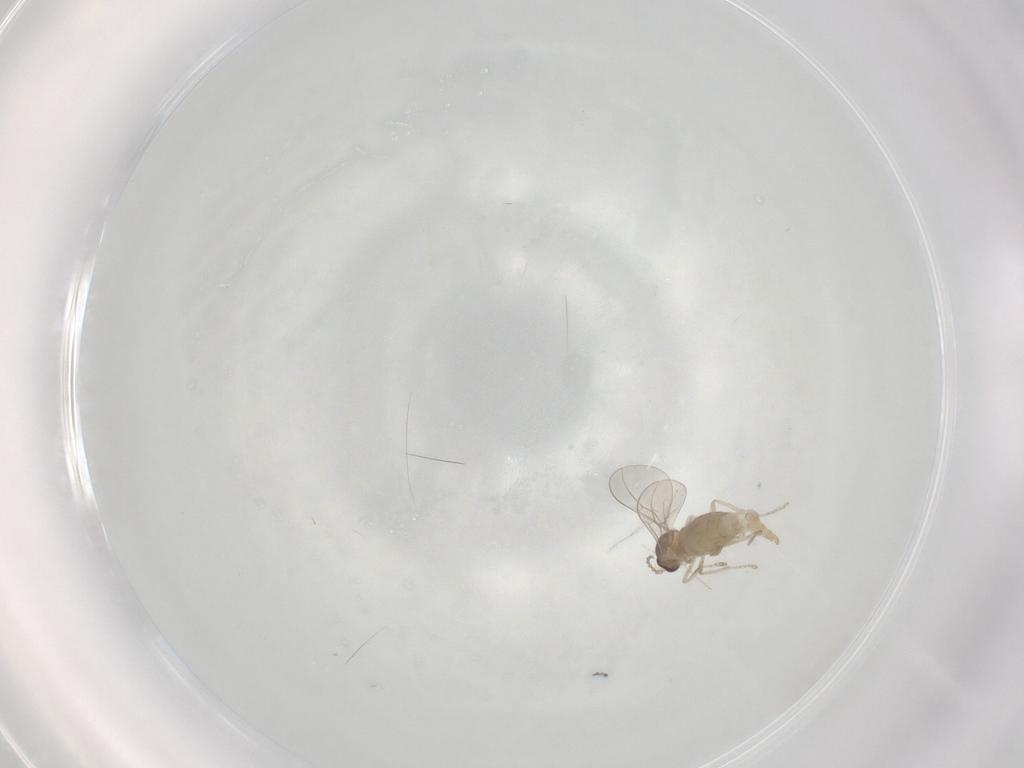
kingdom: Animalia
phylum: Arthropoda
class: Insecta
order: Diptera
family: Cecidomyiidae
